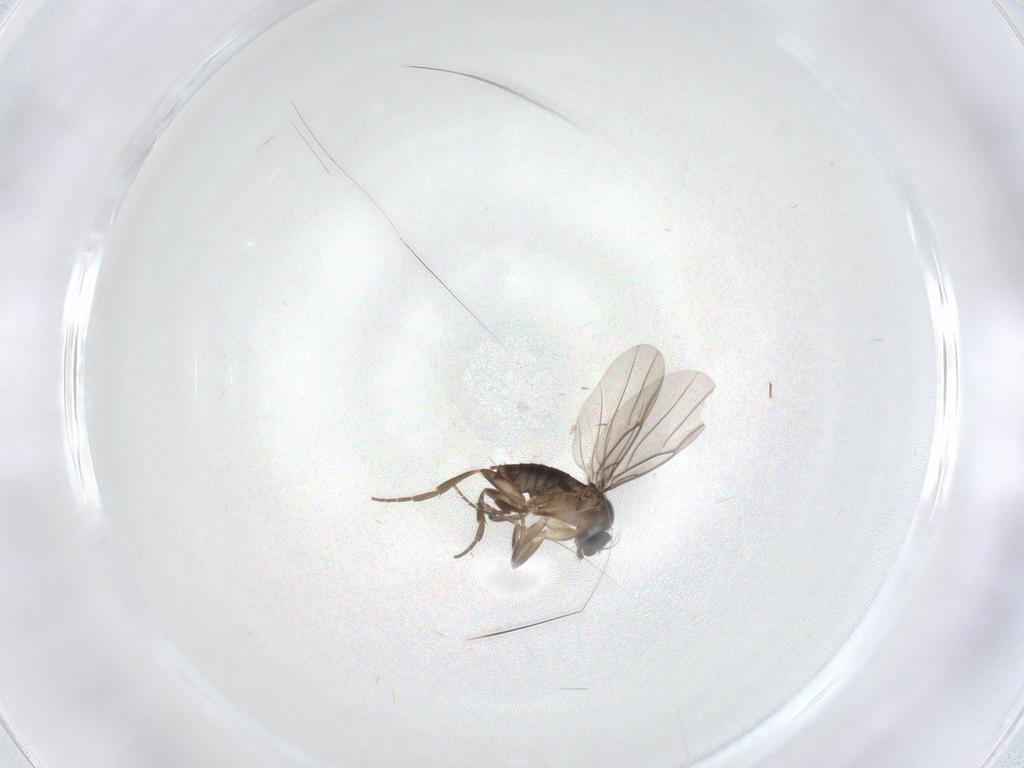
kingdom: Animalia
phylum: Arthropoda
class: Insecta
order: Diptera
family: Cecidomyiidae
